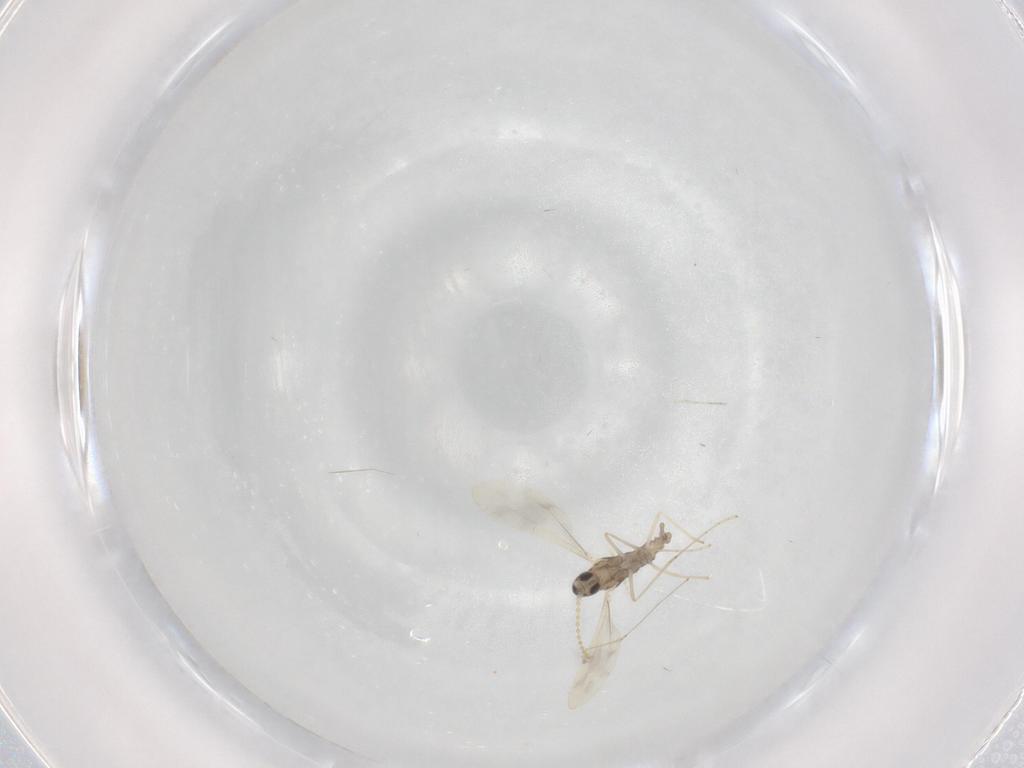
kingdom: Animalia
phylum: Arthropoda
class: Insecta
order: Diptera
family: Cecidomyiidae
